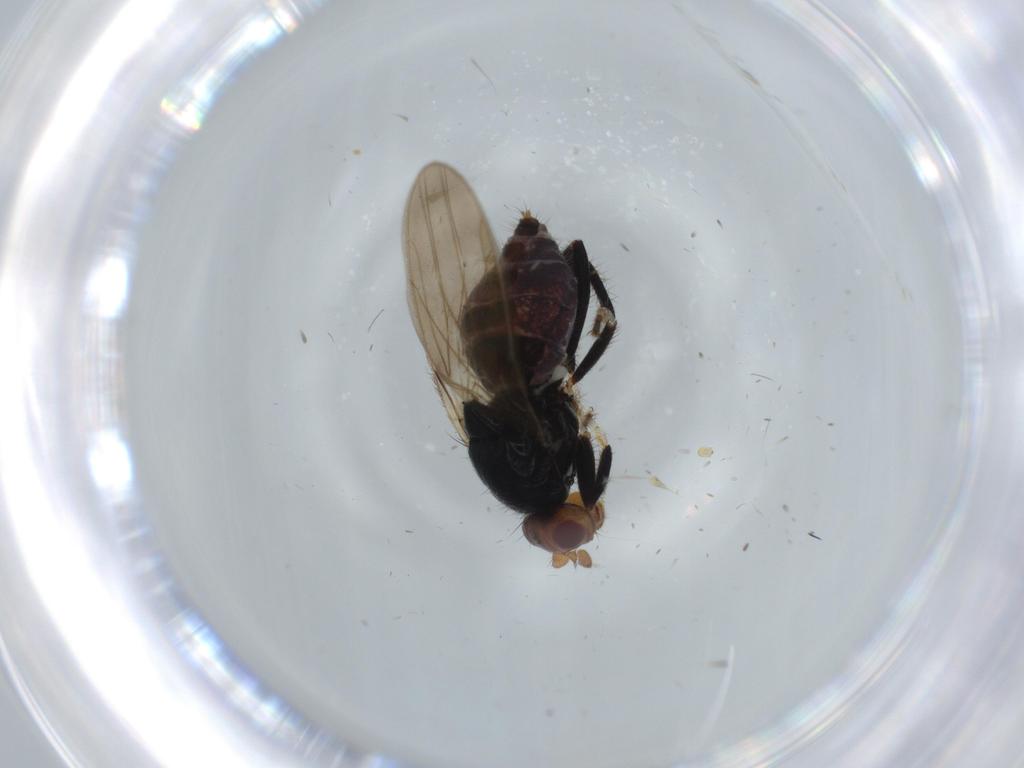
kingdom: Animalia
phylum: Arthropoda
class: Insecta
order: Diptera
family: Cecidomyiidae
